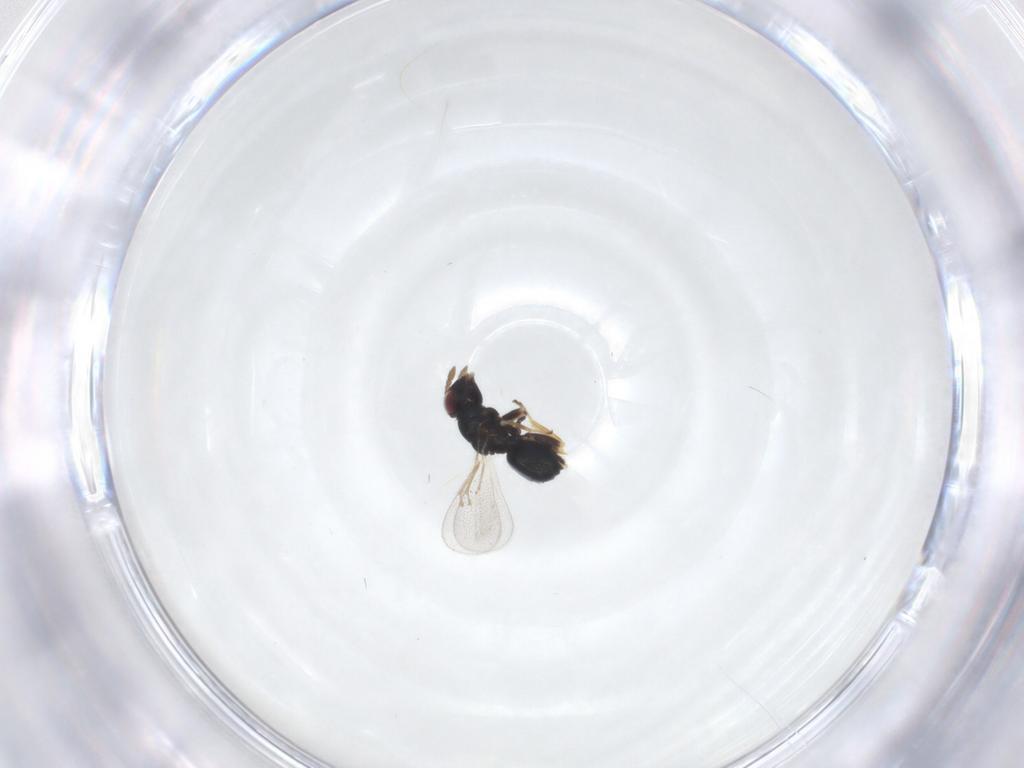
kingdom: Animalia
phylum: Arthropoda
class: Insecta
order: Hymenoptera
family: Eulophidae
